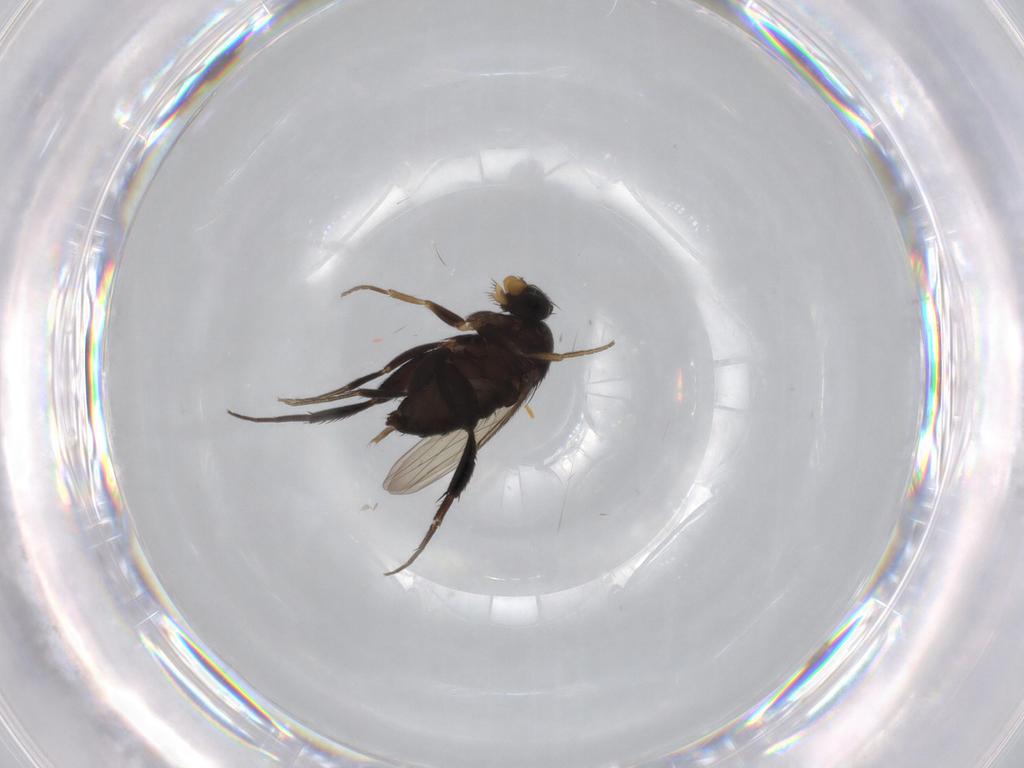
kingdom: Animalia
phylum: Arthropoda
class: Insecta
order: Diptera
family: Phoridae
